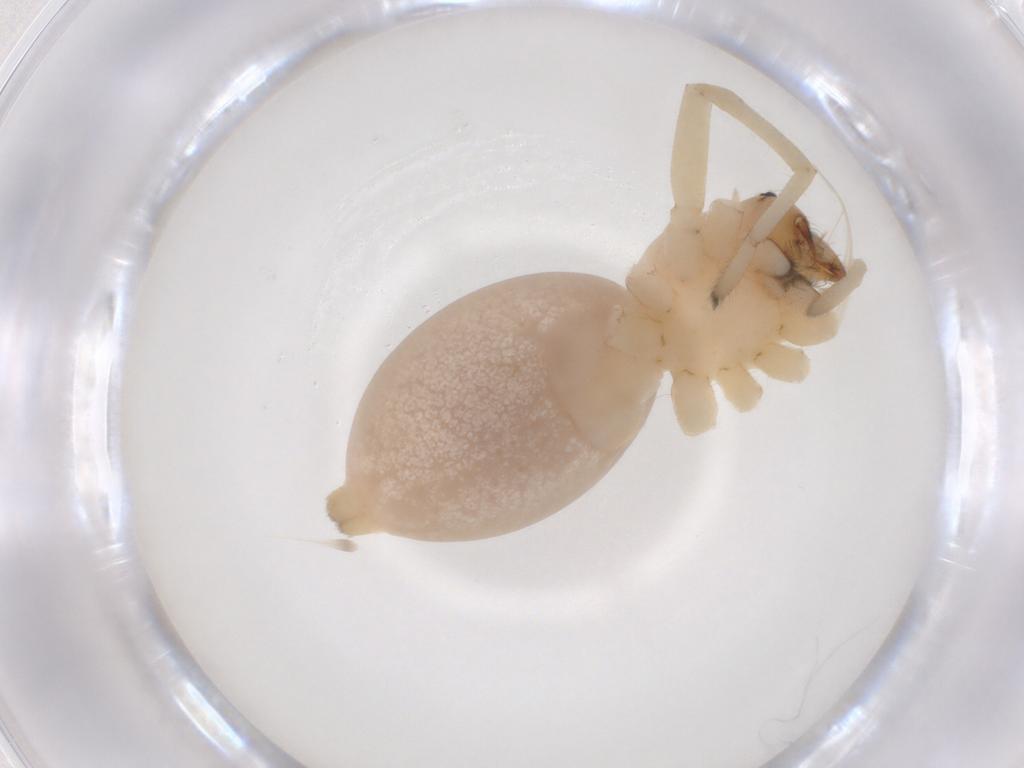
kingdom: Animalia
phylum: Arthropoda
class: Arachnida
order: Araneae
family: Cheiracanthiidae
